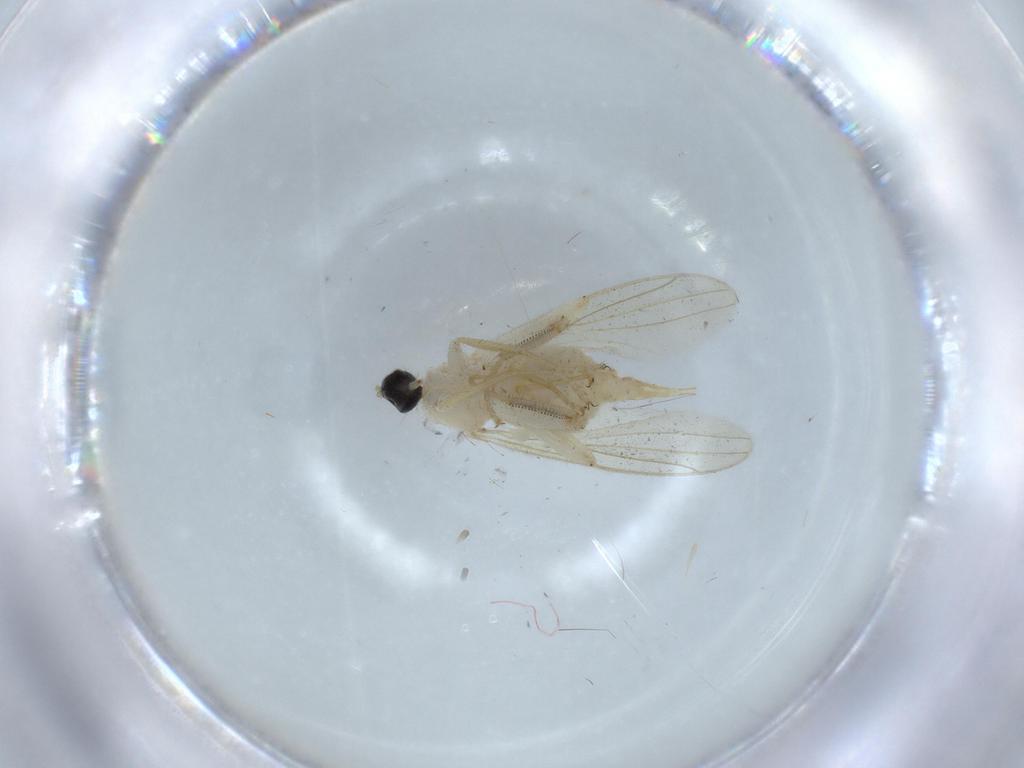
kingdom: Animalia
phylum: Arthropoda
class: Insecta
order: Diptera
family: Hybotidae
